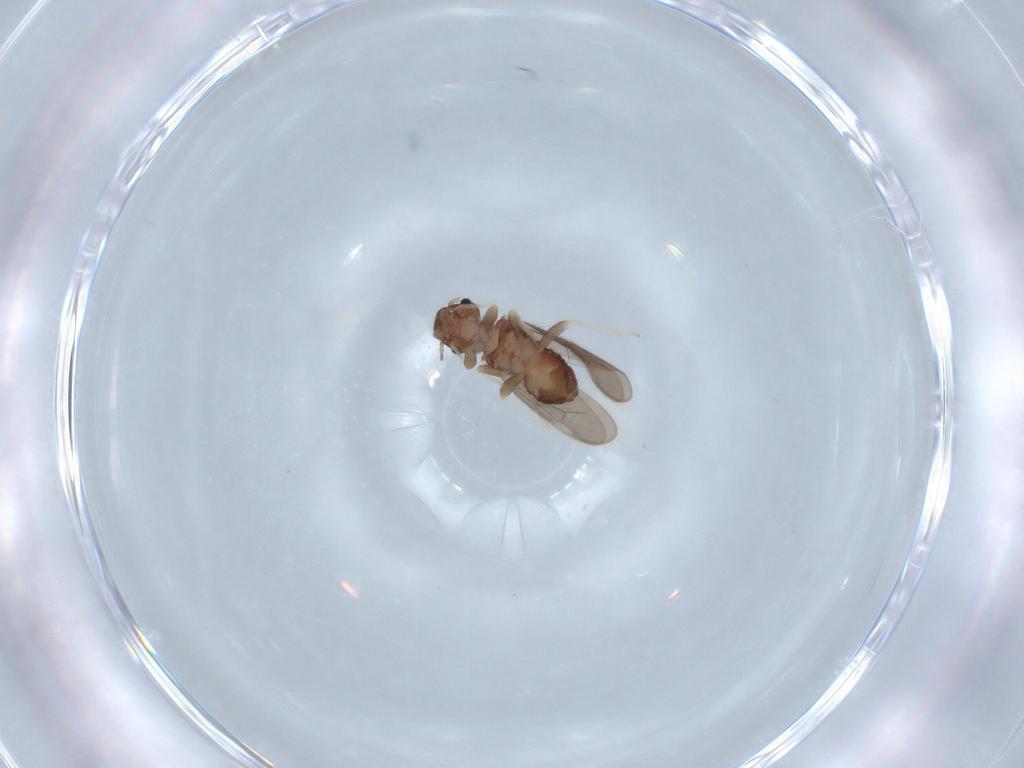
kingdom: Animalia
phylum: Arthropoda
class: Insecta
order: Psocodea
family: Archipsocidae
